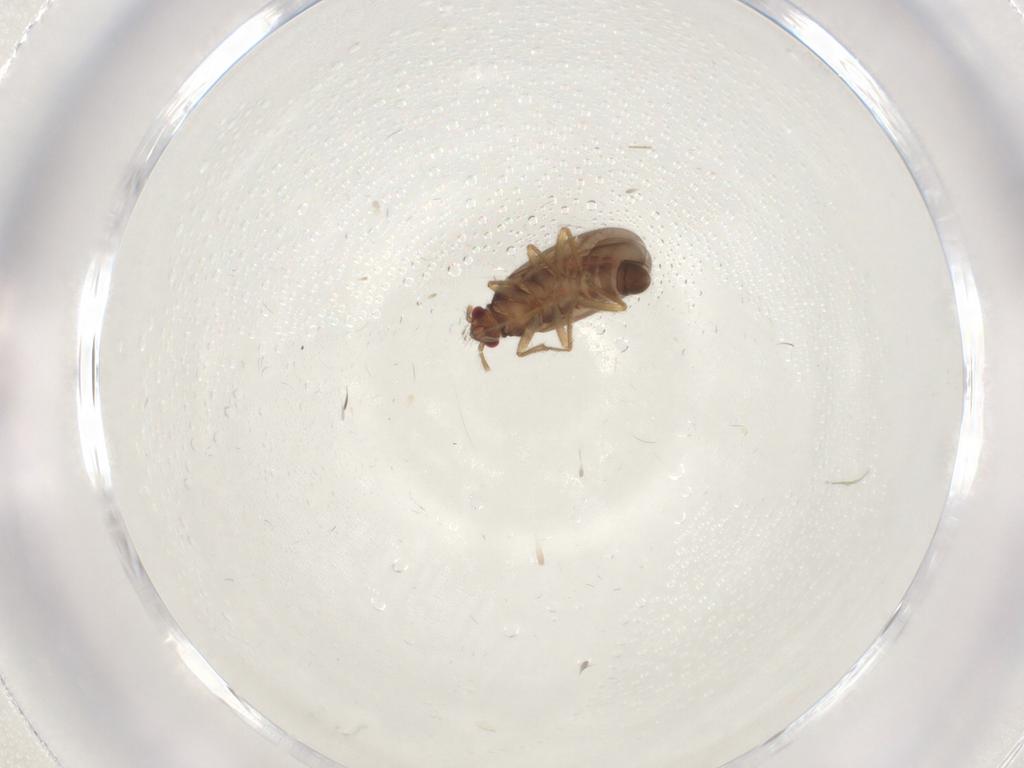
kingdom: Animalia
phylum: Arthropoda
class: Insecta
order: Hemiptera
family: Ceratocombidae
